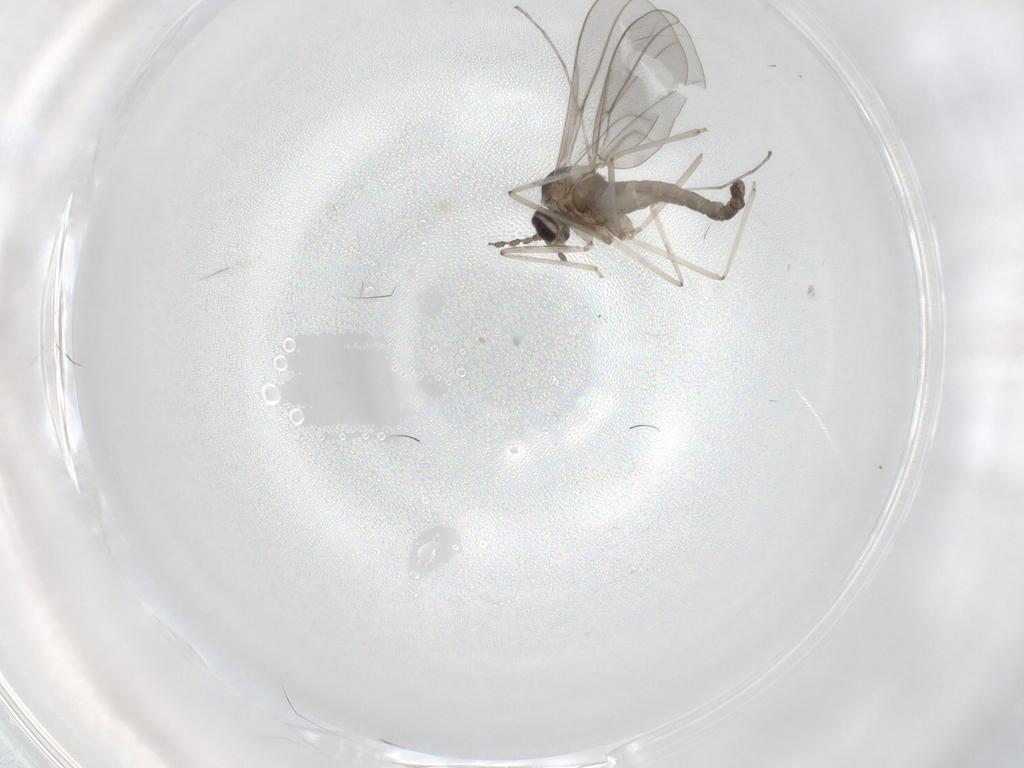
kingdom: Animalia
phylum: Arthropoda
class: Insecta
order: Diptera
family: Cecidomyiidae
